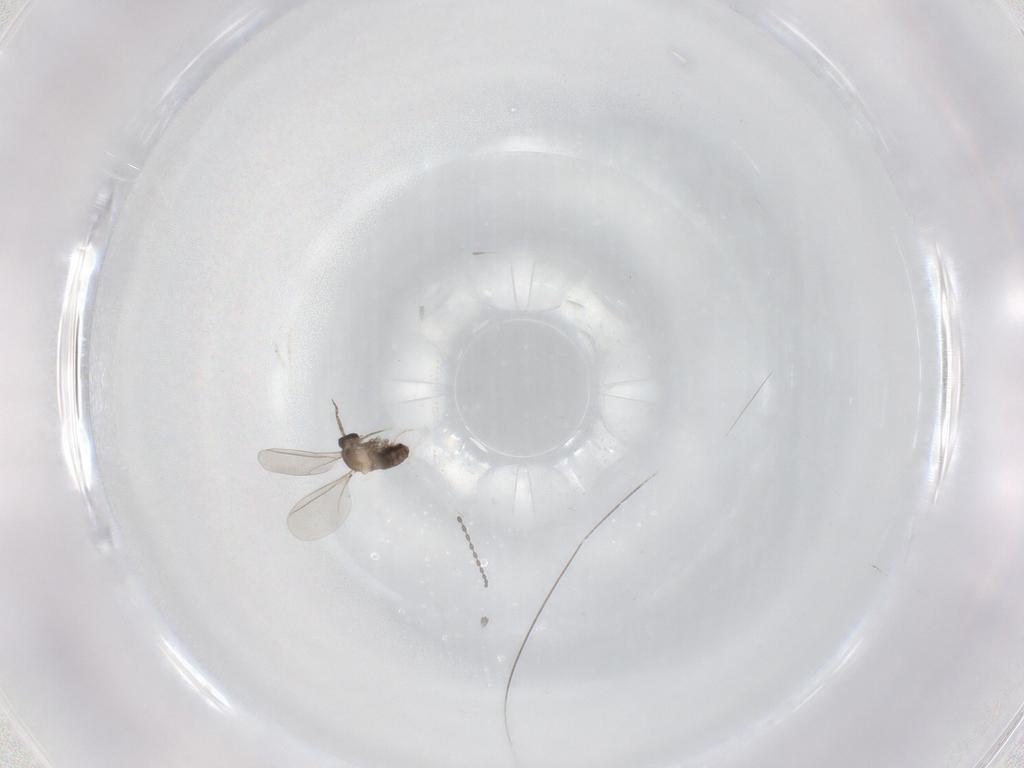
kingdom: Animalia
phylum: Arthropoda
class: Insecta
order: Diptera
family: Cecidomyiidae
